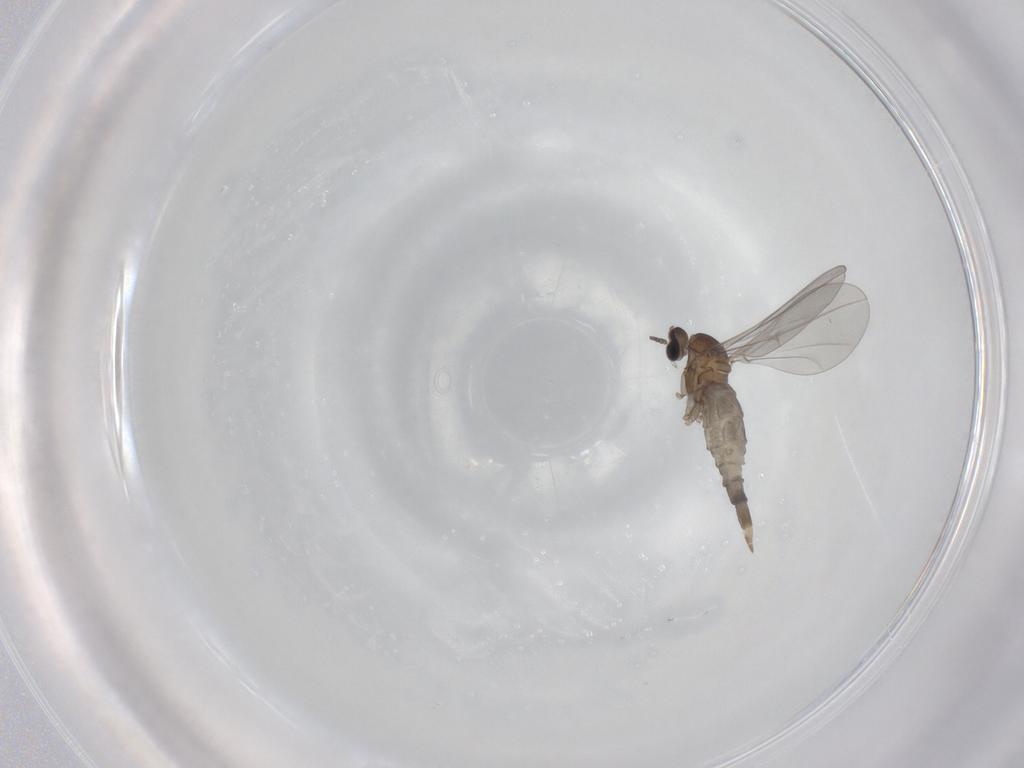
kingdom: Animalia
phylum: Arthropoda
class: Insecta
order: Diptera
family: Cecidomyiidae
